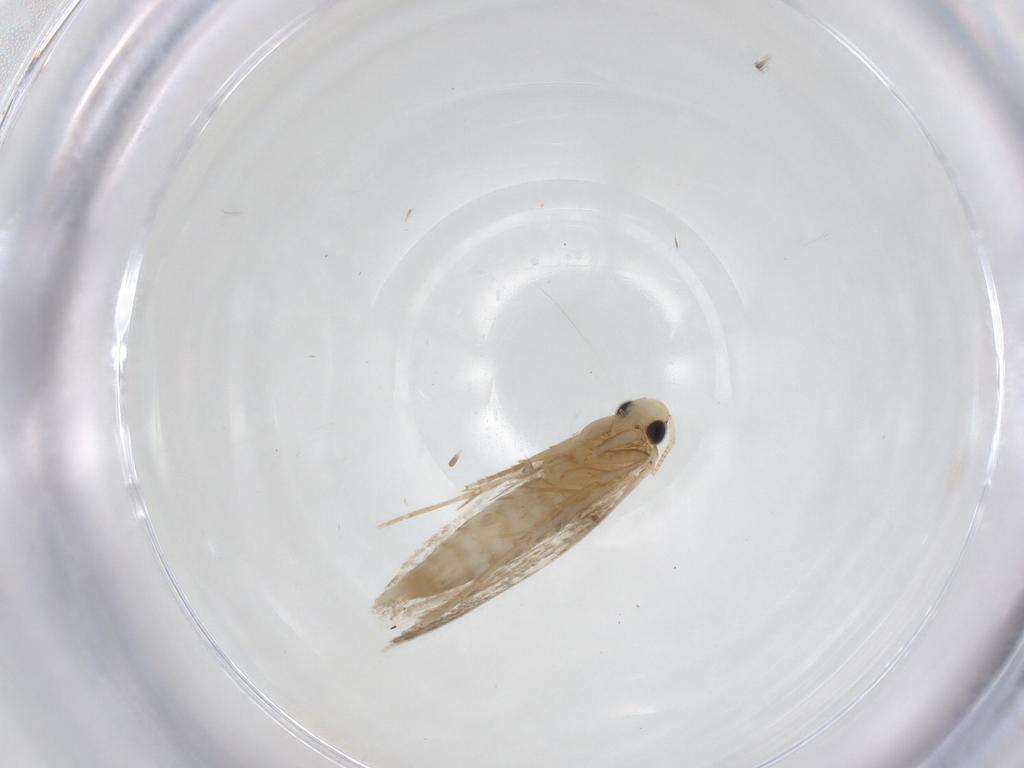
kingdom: Animalia
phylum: Arthropoda
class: Insecta
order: Lepidoptera
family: Tineidae
